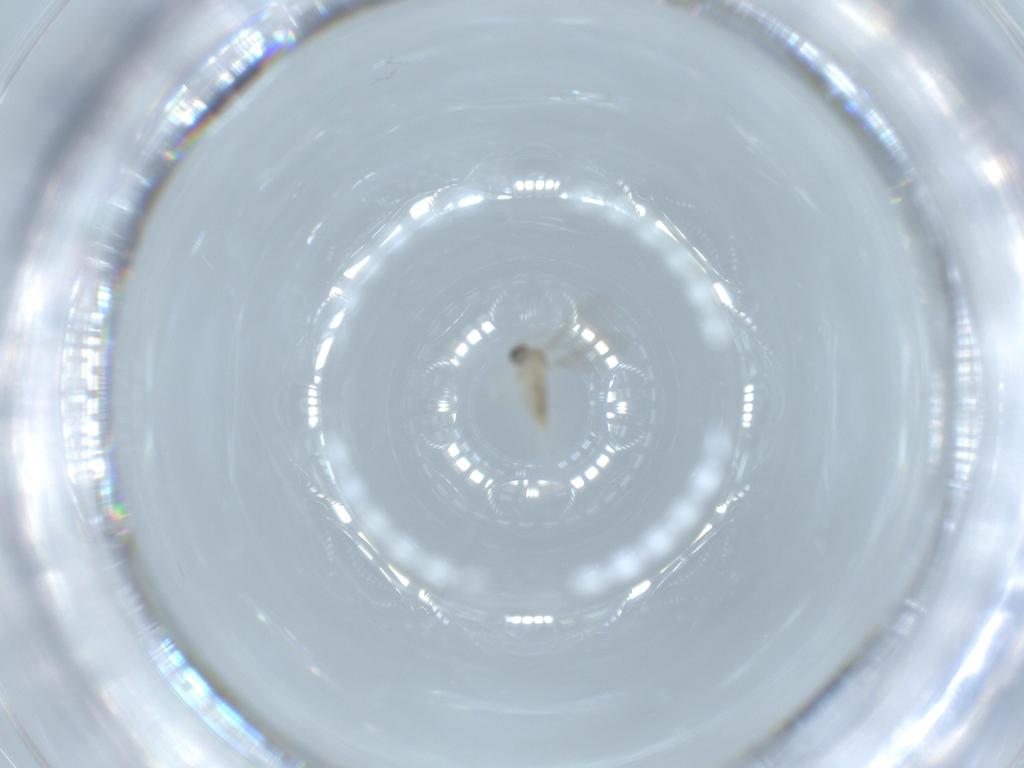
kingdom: Animalia
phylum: Arthropoda
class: Insecta
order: Diptera
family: Cecidomyiidae
